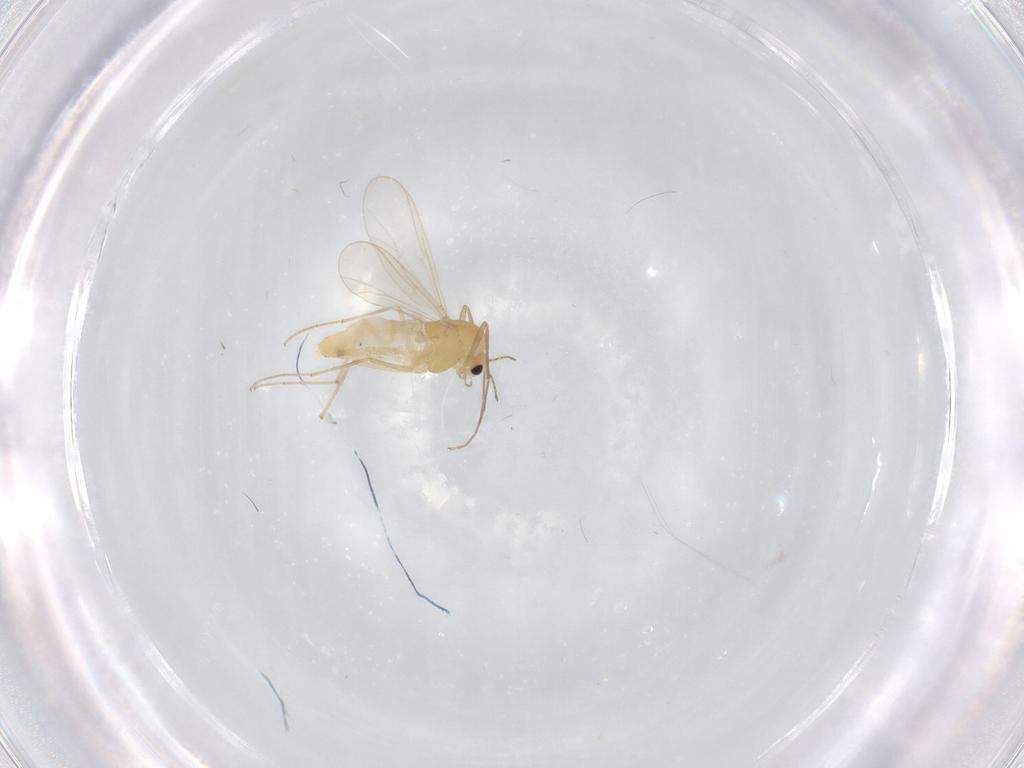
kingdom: Animalia
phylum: Arthropoda
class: Insecta
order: Diptera
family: Chironomidae
